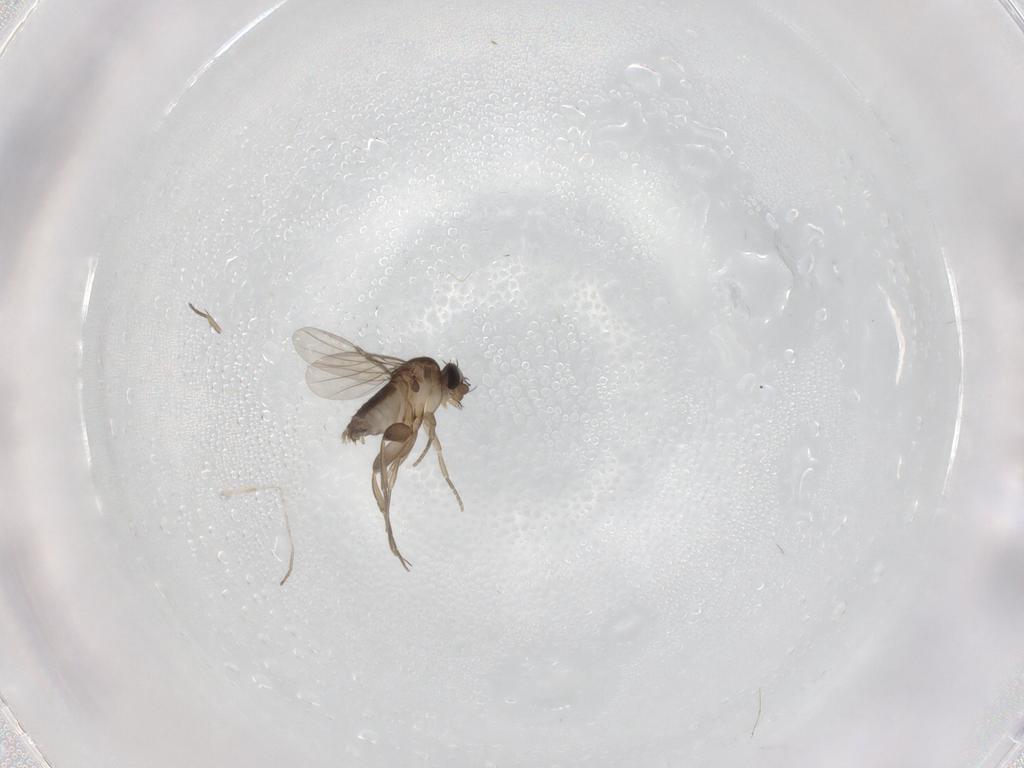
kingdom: Animalia
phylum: Arthropoda
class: Insecta
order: Diptera
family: Phoridae
